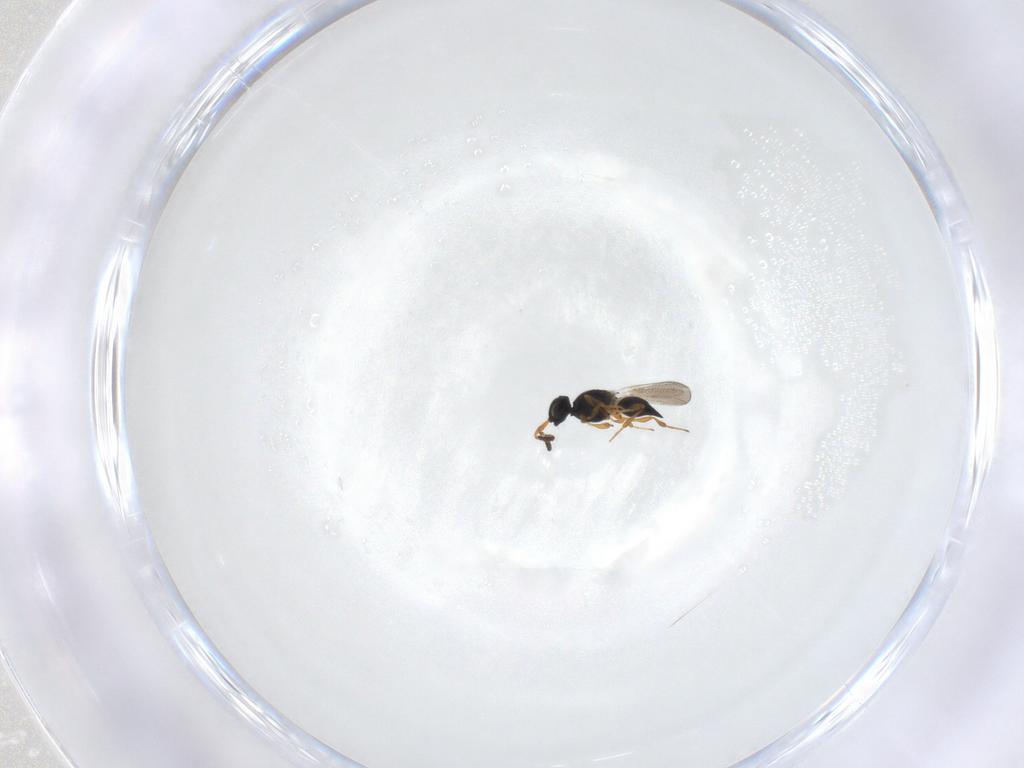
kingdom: Animalia
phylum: Arthropoda
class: Insecta
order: Hymenoptera
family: Platygastridae
